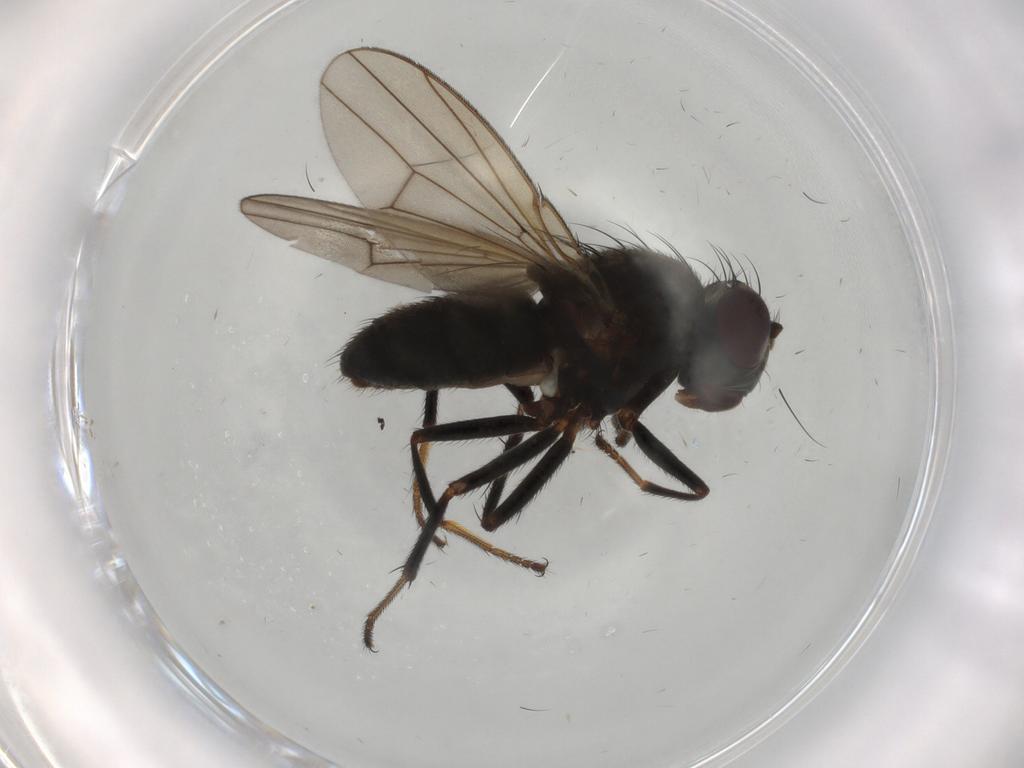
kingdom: Animalia
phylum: Arthropoda
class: Insecta
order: Diptera
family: Ephydridae
